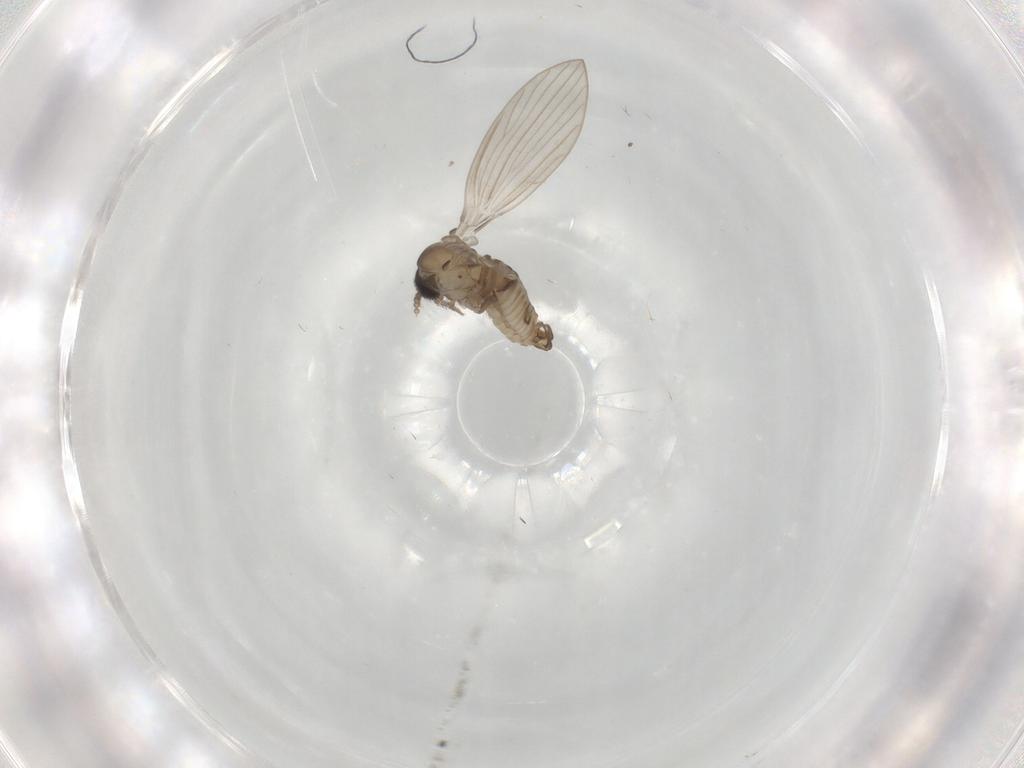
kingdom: Animalia
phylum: Arthropoda
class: Insecta
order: Diptera
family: Psychodidae
